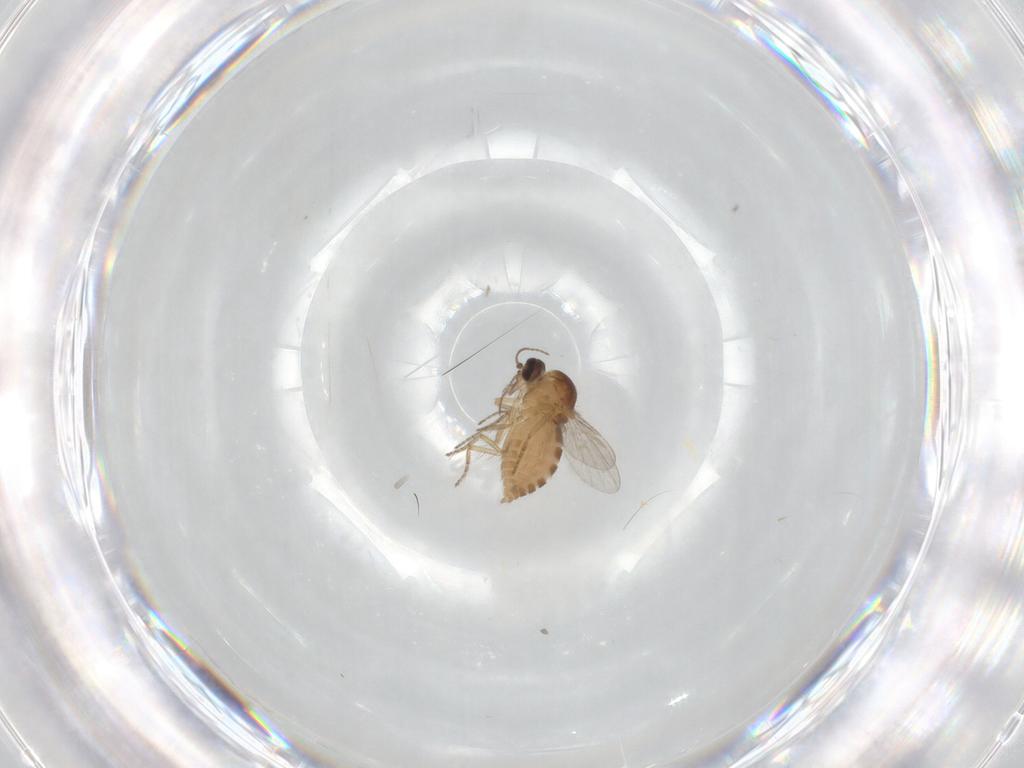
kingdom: Animalia
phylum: Arthropoda
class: Insecta
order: Diptera
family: Ceratopogonidae
